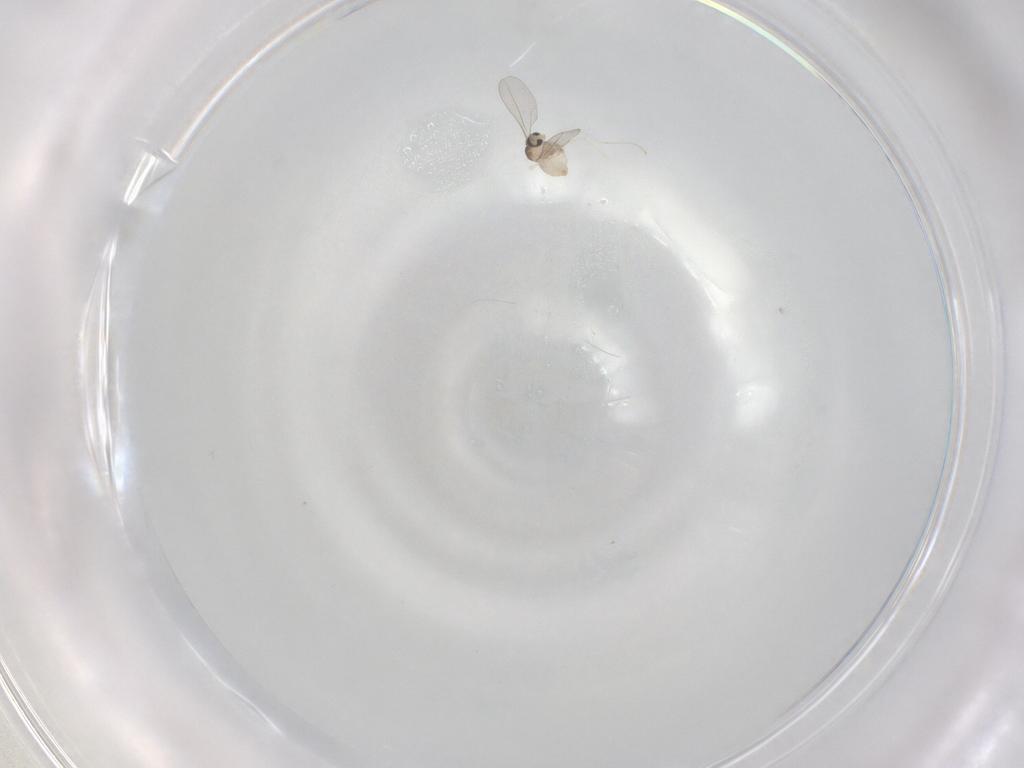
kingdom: Animalia
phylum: Arthropoda
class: Insecta
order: Diptera
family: Cecidomyiidae
